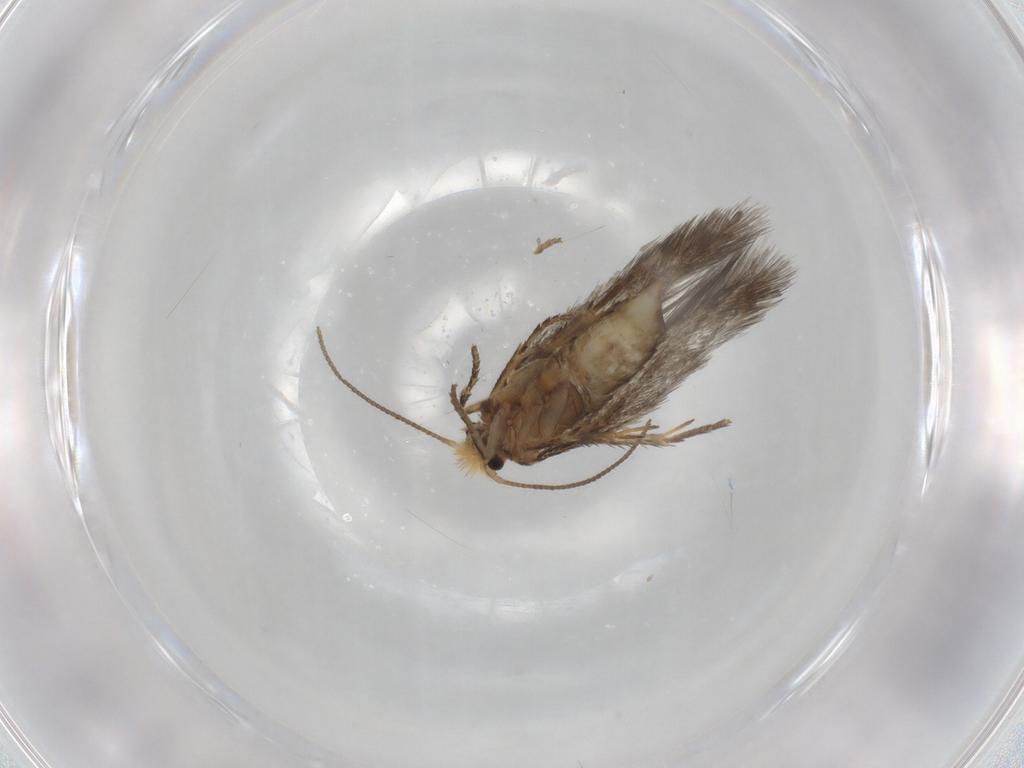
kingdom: Animalia
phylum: Arthropoda
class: Insecta
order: Lepidoptera
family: Nepticulidae
